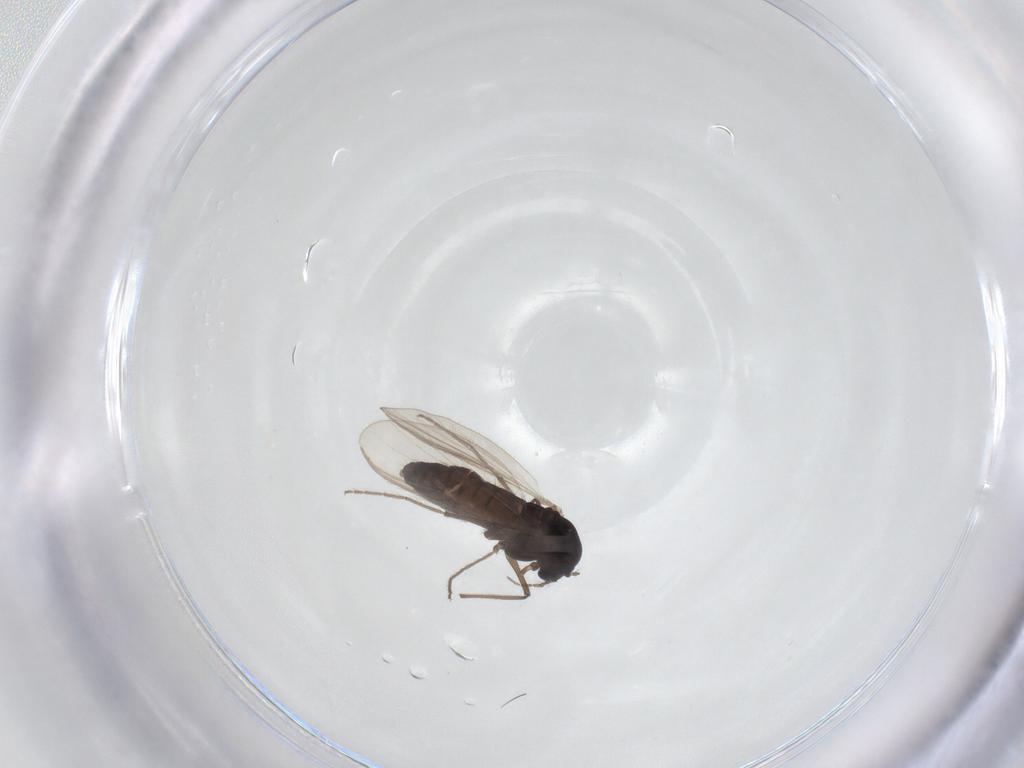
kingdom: Animalia
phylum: Arthropoda
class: Insecta
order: Diptera
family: Chironomidae
